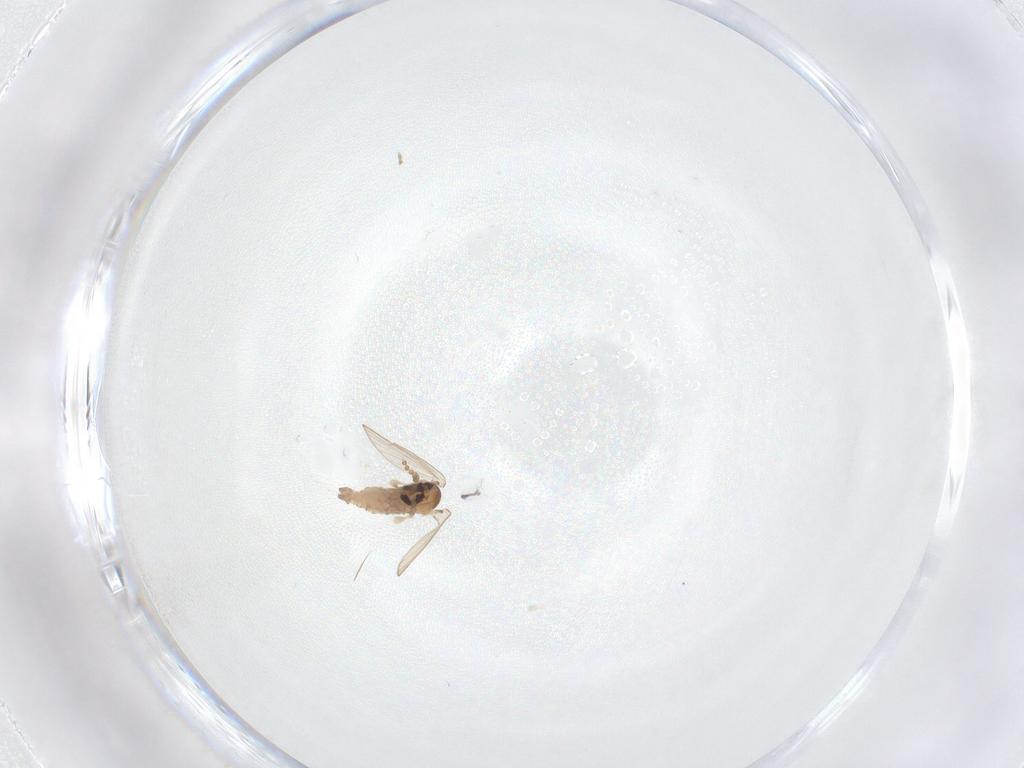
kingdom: Animalia
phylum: Arthropoda
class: Insecta
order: Diptera
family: Psychodidae
